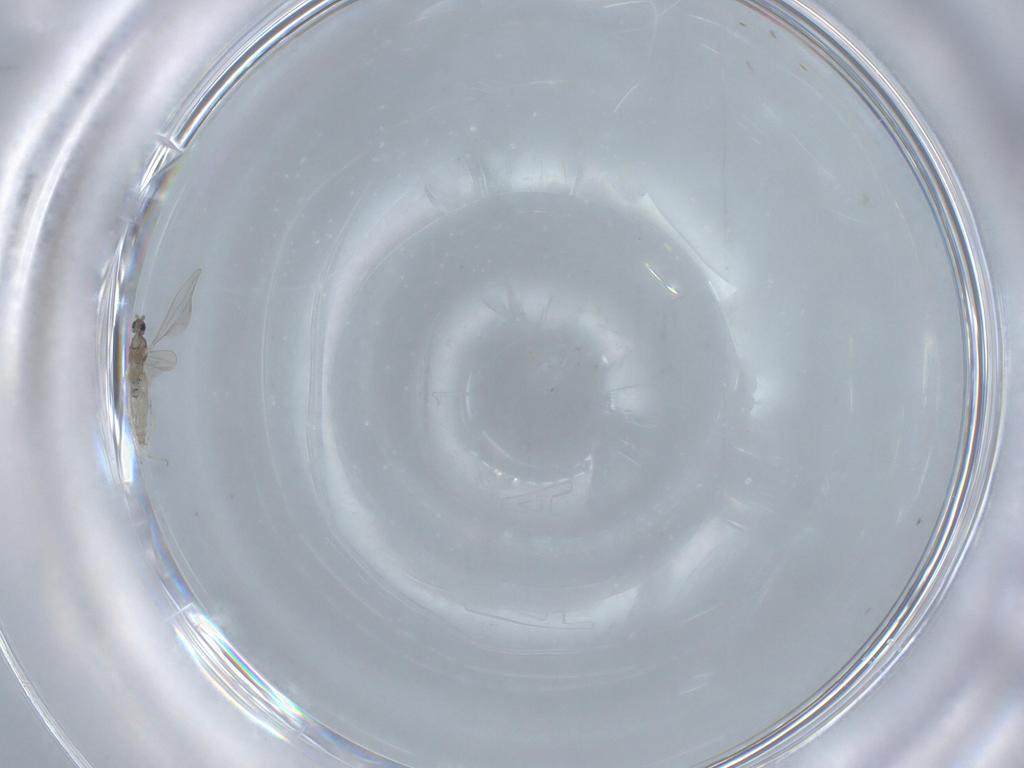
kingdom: Animalia
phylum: Arthropoda
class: Insecta
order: Diptera
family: Cecidomyiidae
